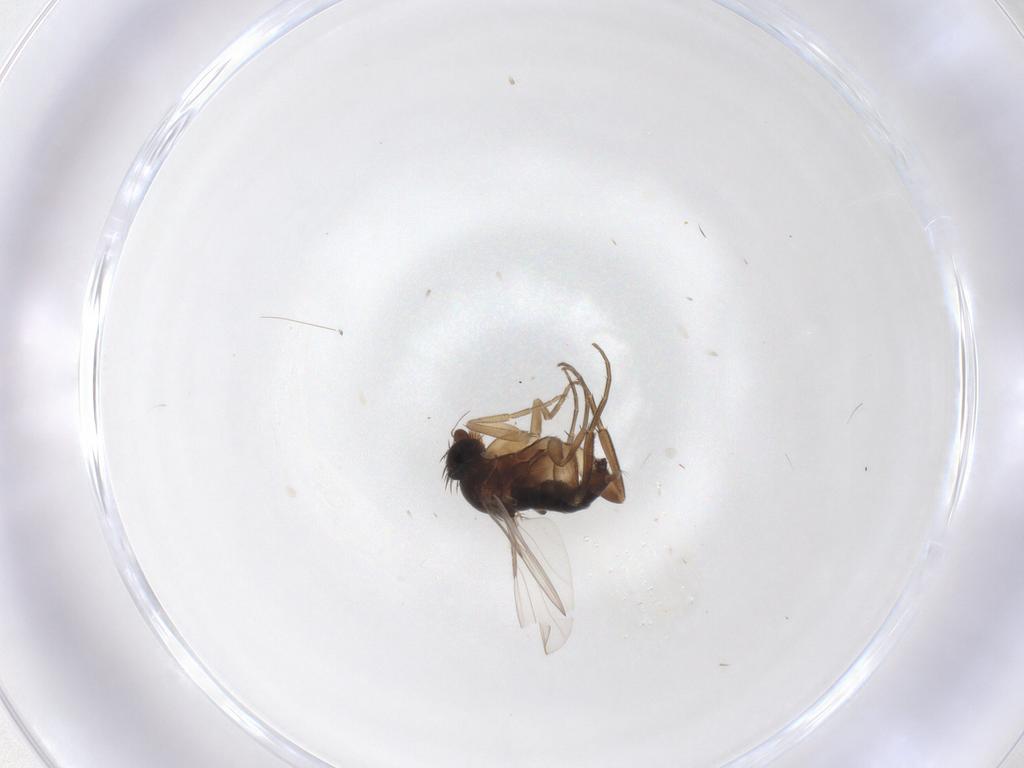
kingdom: Animalia
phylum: Arthropoda
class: Insecta
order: Diptera
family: Phoridae
